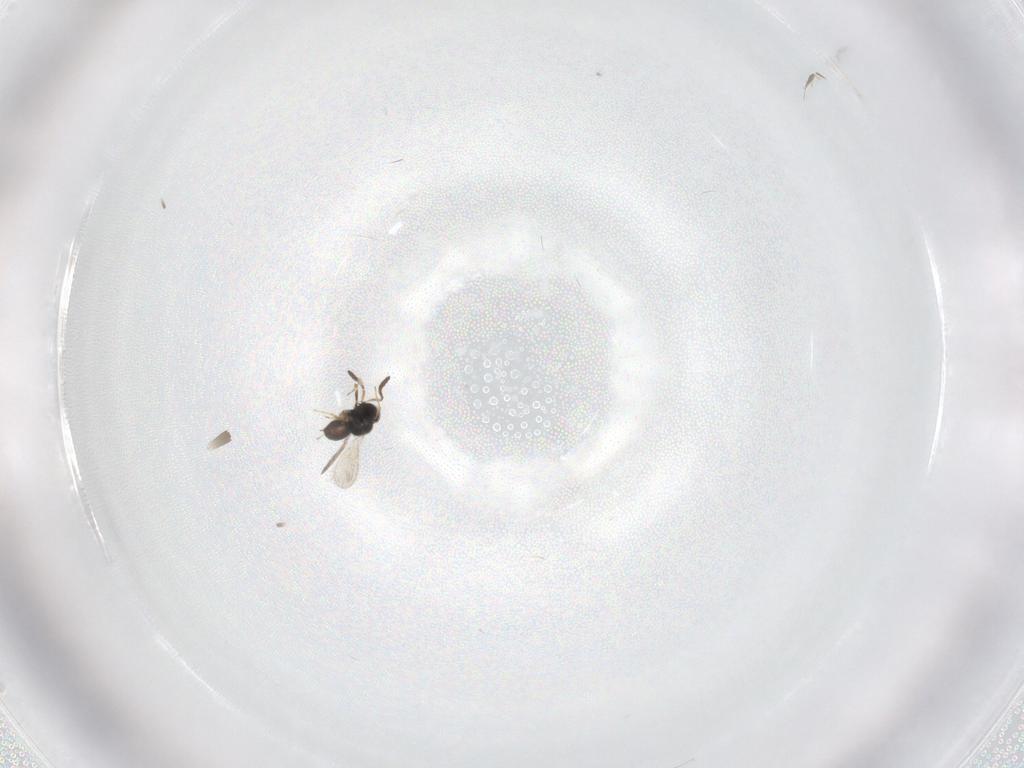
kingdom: Animalia
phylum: Arthropoda
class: Insecta
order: Hymenoptera
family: Scelionidae
